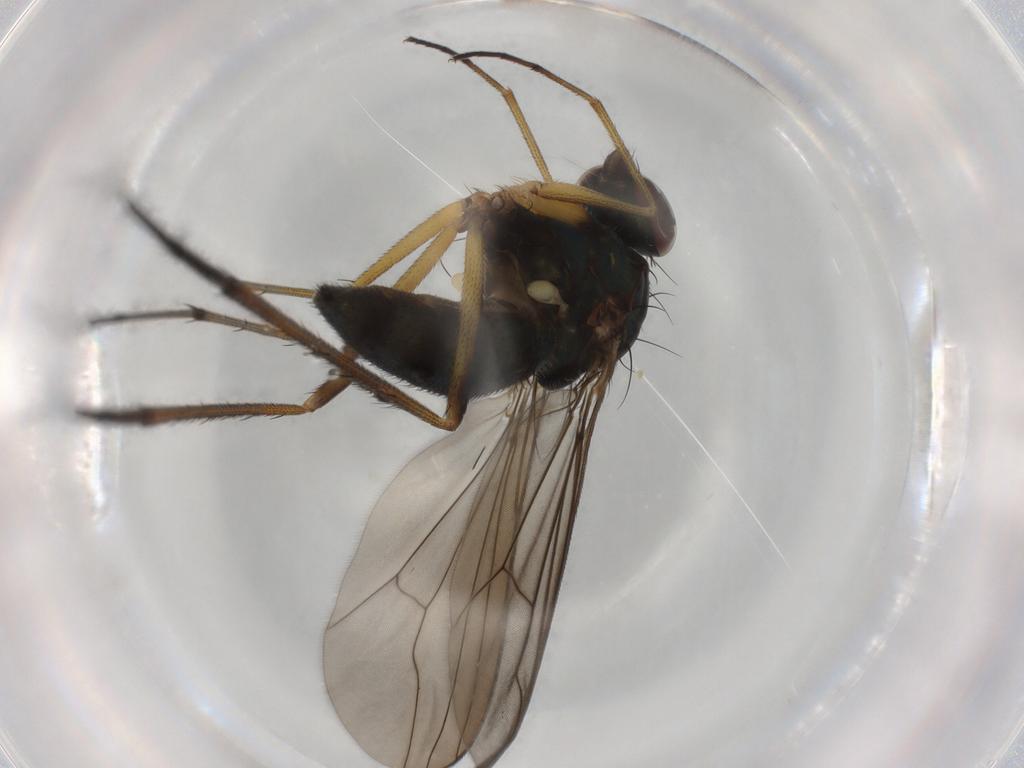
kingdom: Animalia
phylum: Arthropoda
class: Insecta
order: Diptera
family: Dolichopodidae
